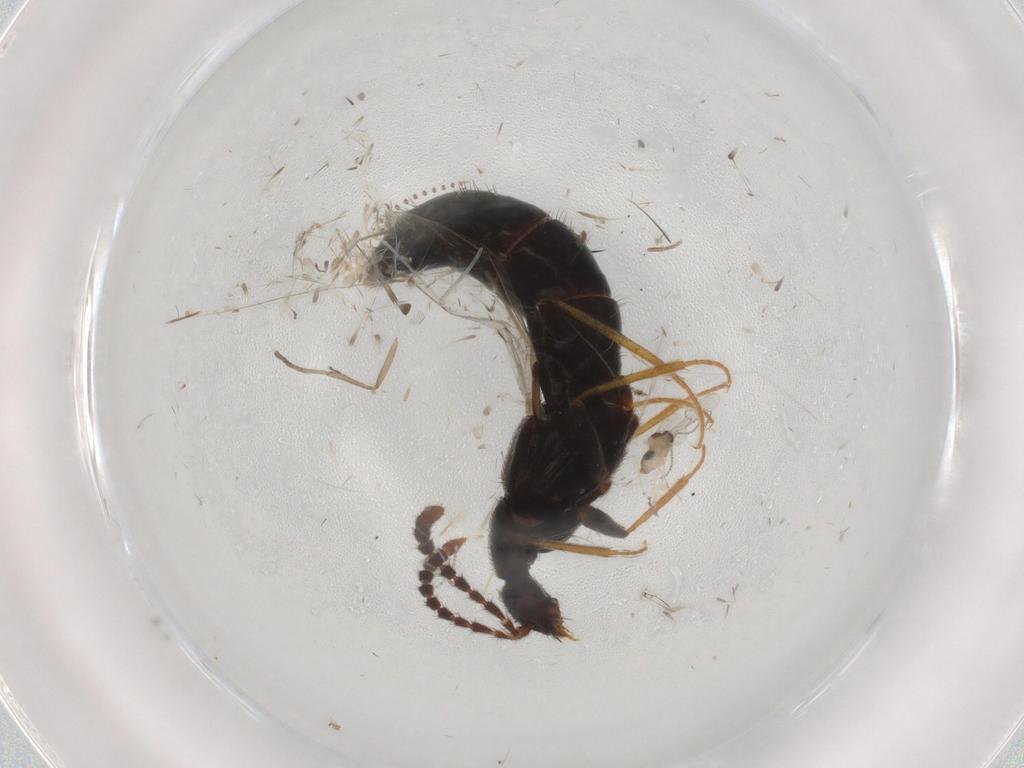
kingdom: Animalia
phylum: Arthropoda
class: Insecta
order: Coleoptera
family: Staphylinidae
